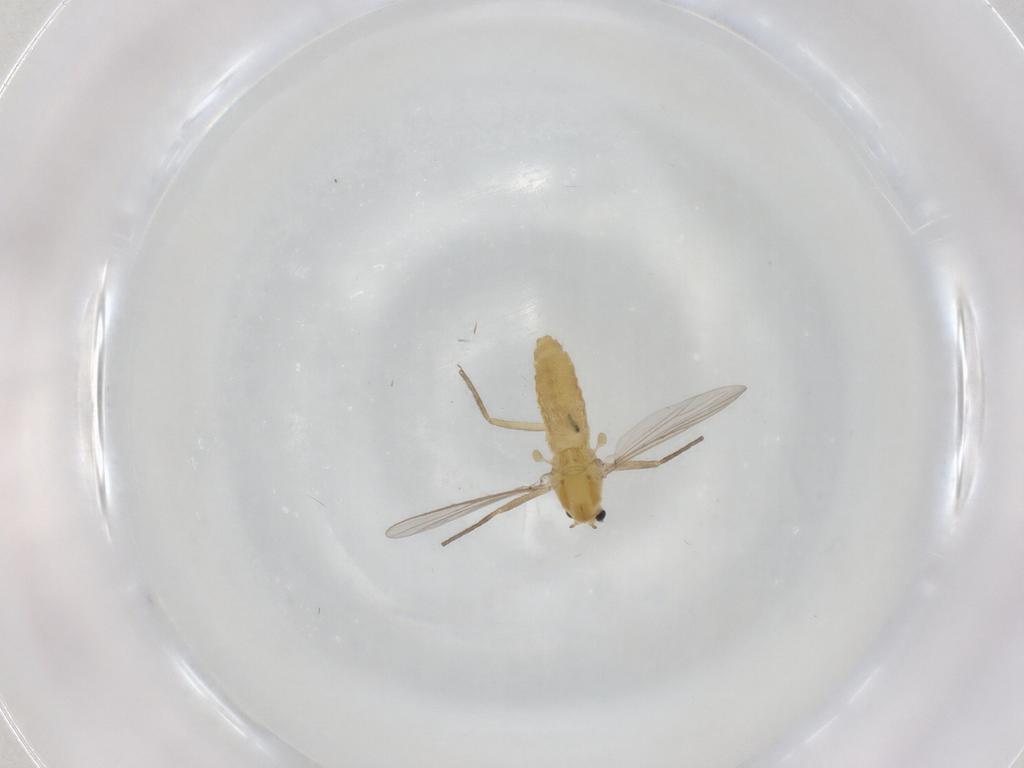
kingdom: Animalia
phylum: Arthropoda
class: Insecta
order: Diptera
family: Chironomidae
